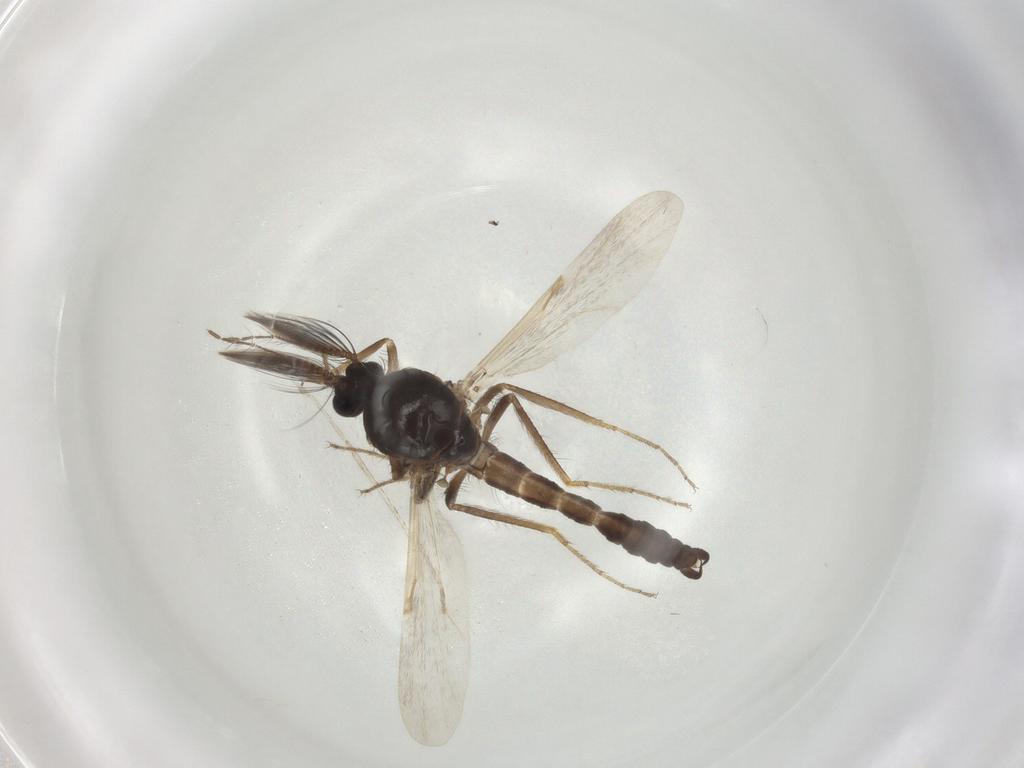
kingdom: Animalia
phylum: Arthropoda
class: Insecta
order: Diptera
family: Ceratopogonidae
